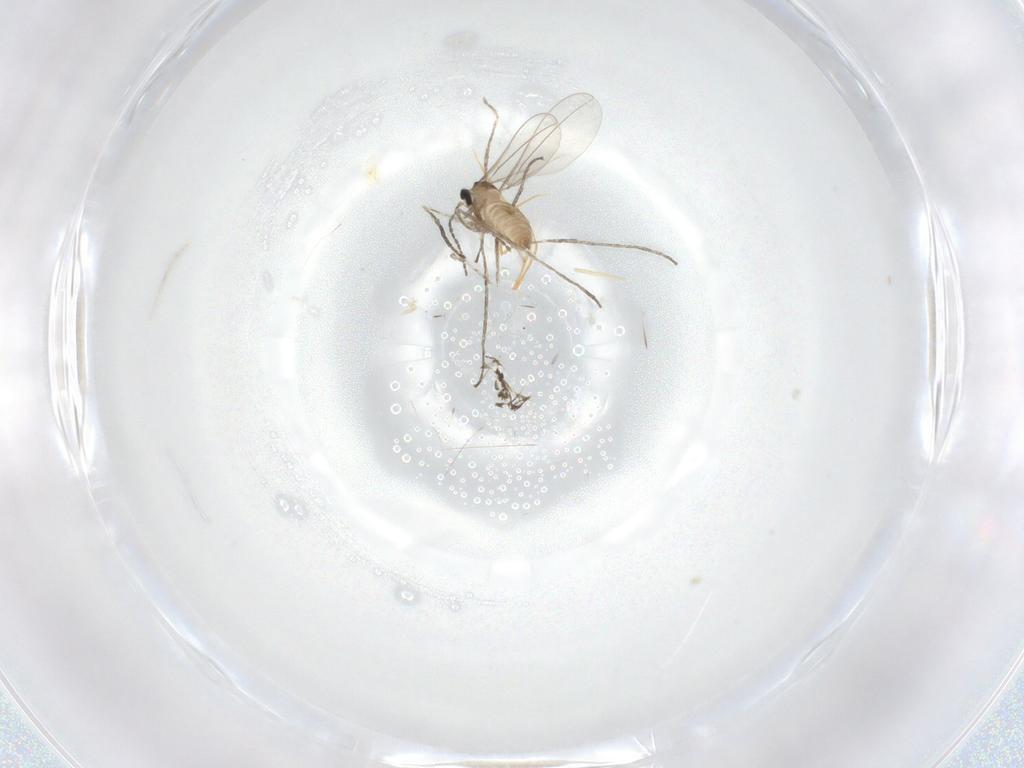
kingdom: Animalia
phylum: Arthropoda
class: Insecta
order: Diptera
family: Cecidomyiidae
